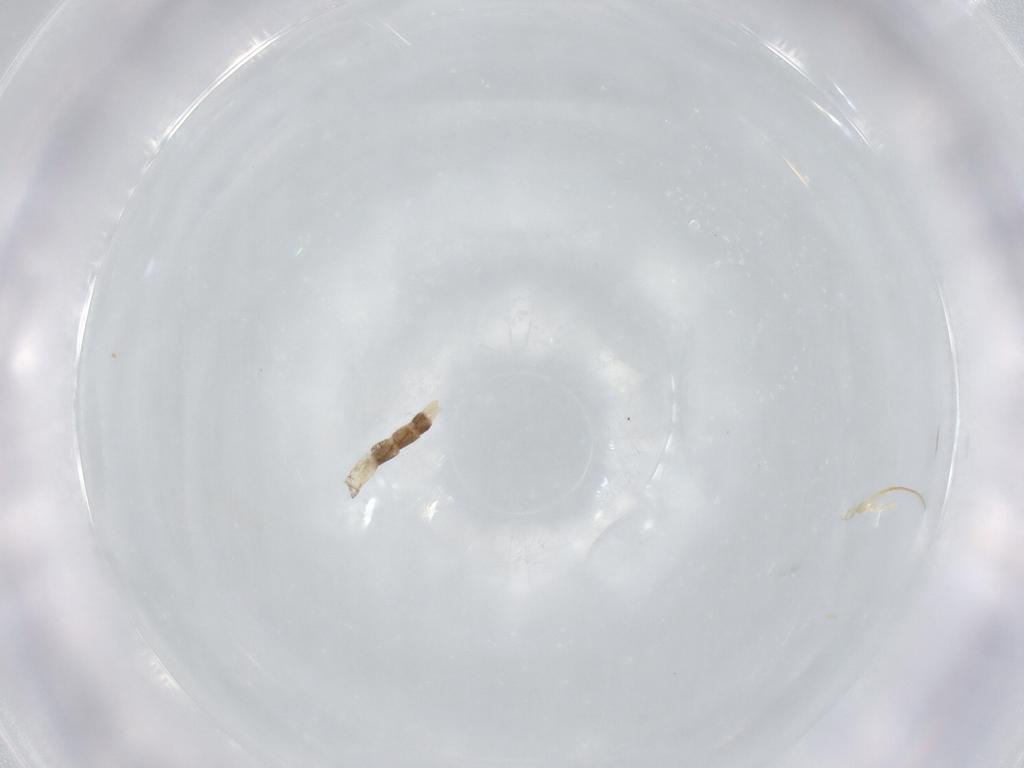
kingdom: Animalia
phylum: Arthropoda
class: Insecta
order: Diptera
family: Chironomidae
